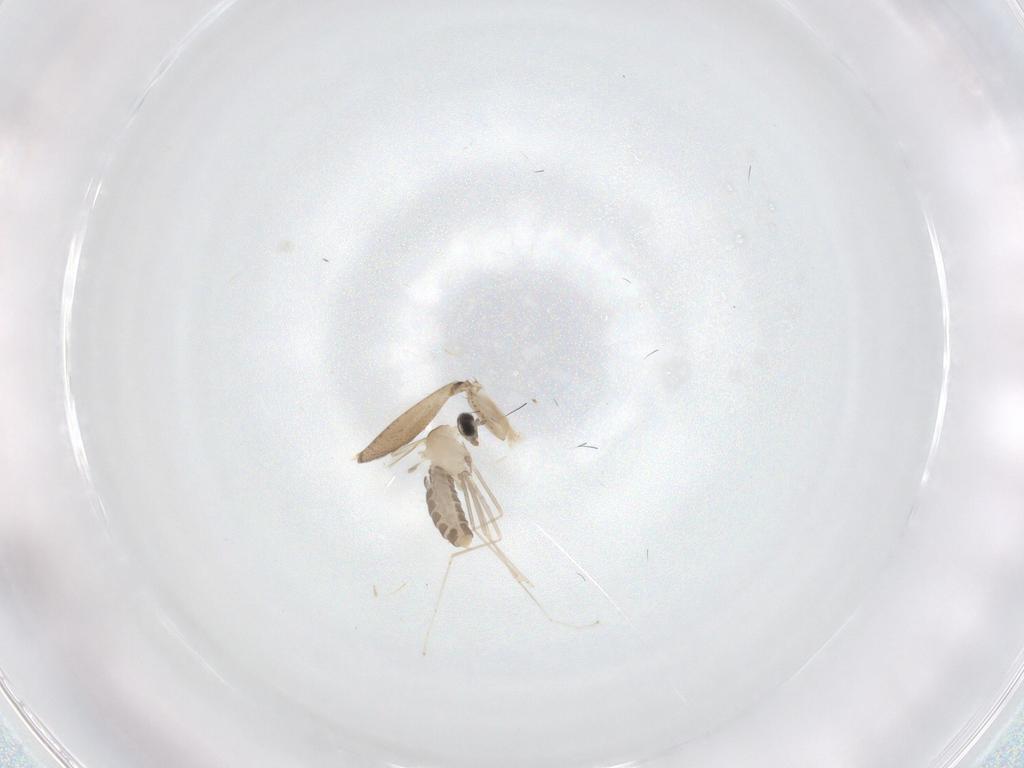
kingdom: Animalia
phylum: Arthropoda
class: Insecta
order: Diptera
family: Cecidomyiidae
